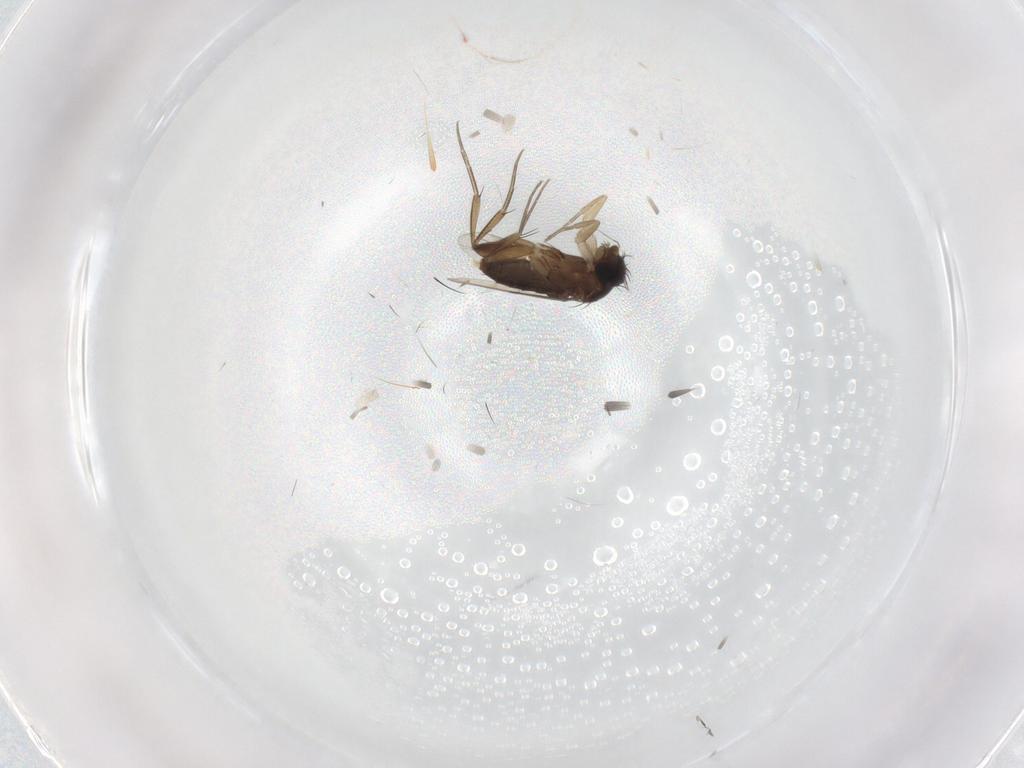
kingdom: Animalia
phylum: Arthropoda
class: Insecta
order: Diptera
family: Phoridae
